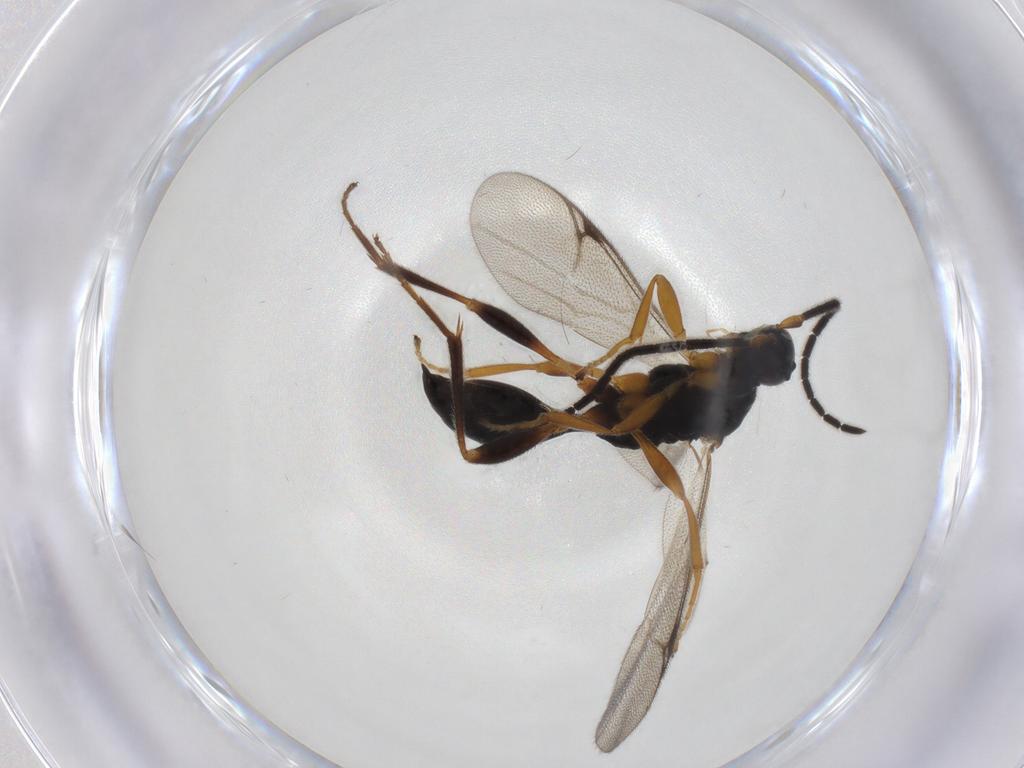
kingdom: Animalia
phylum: Arthropoda
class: Insecta
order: Hymenoptera
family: Proctotrupidae
